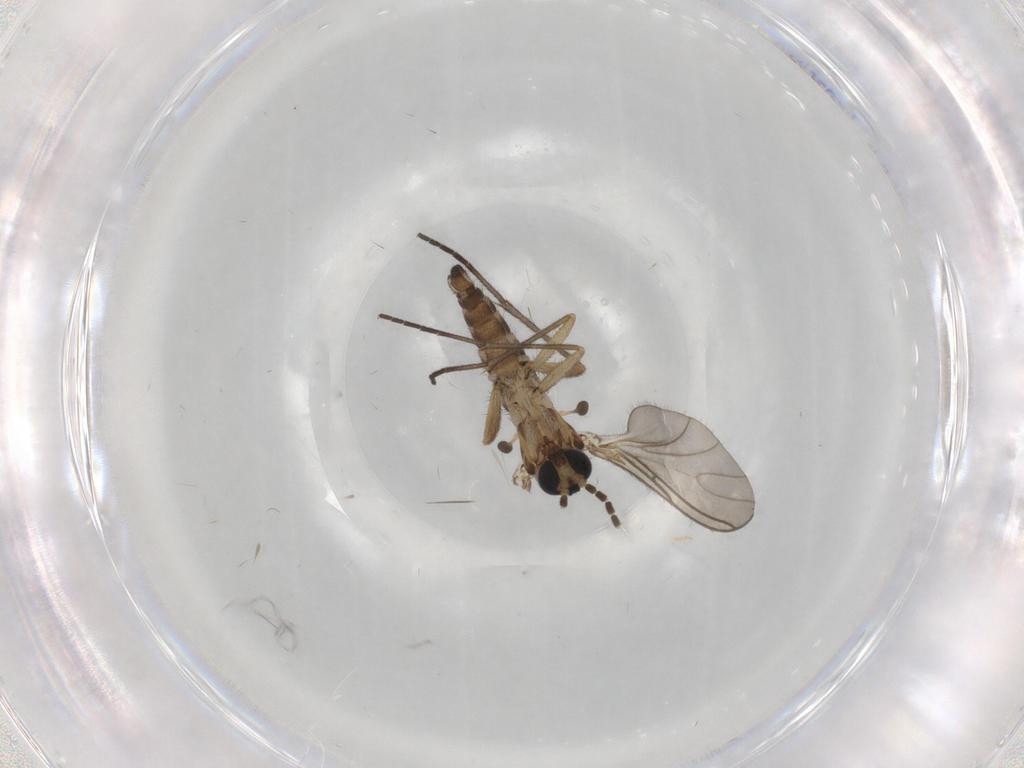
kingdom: Animalia
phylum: Arthropoda
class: Insecta
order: Diptera
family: Sciaridae
